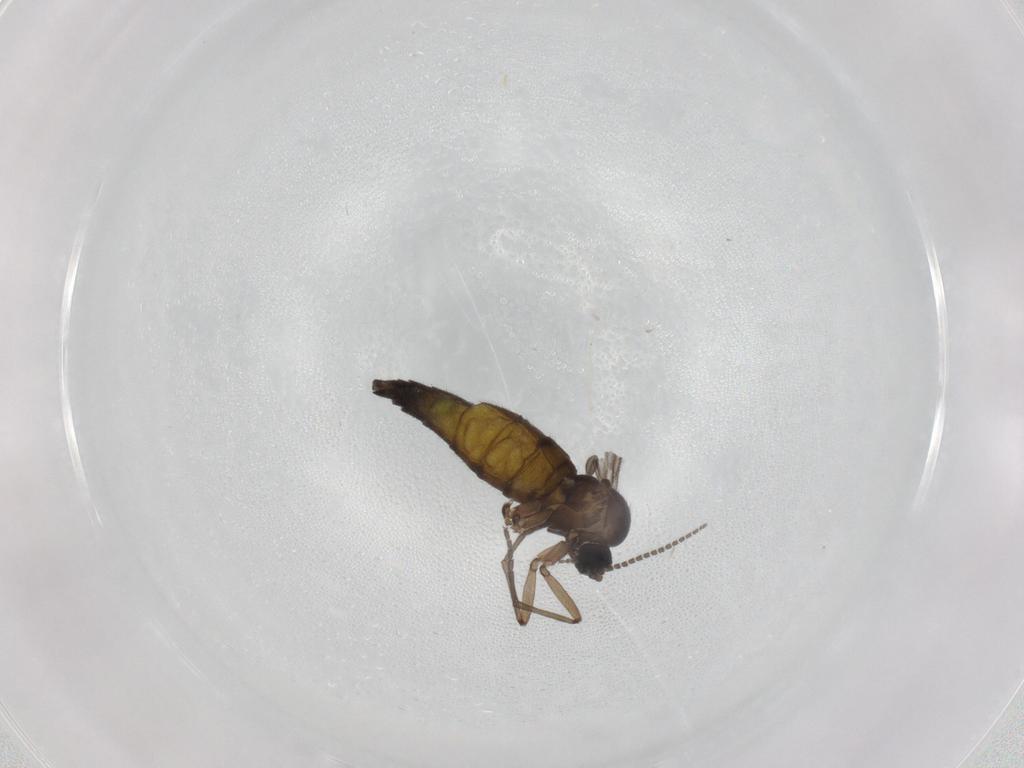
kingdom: Animalia
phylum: Arthropoda
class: Insecta
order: Diptera
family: Sciaridae
